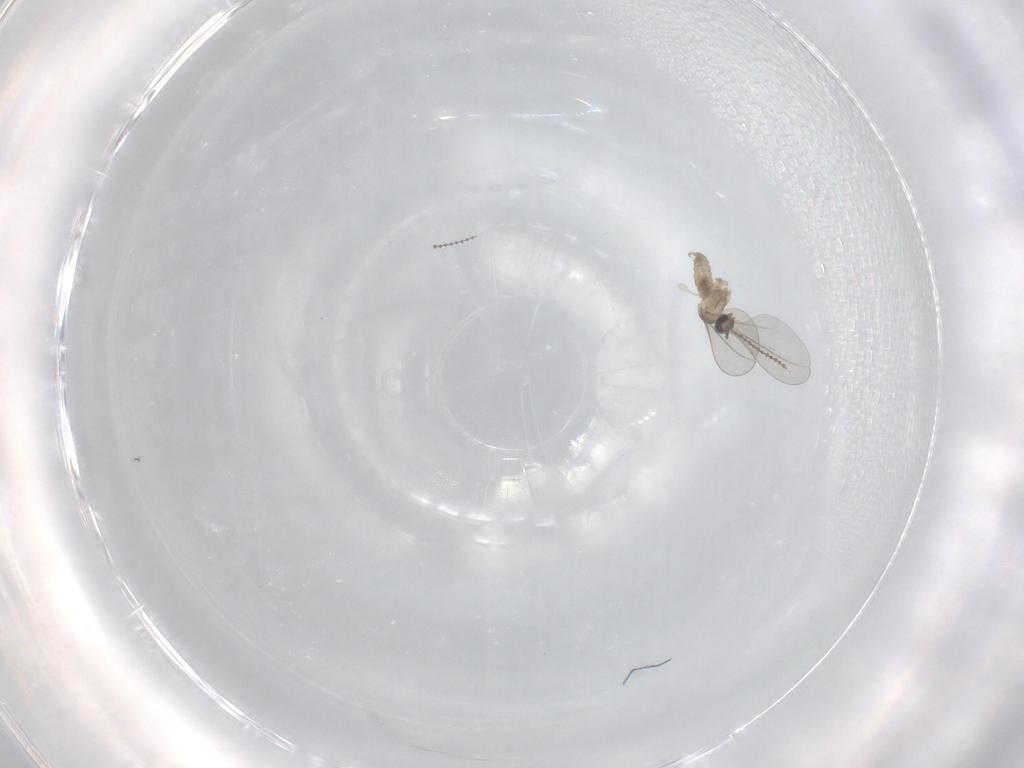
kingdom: Animalia
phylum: Arthropoda
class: Insecta
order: Diptera
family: Cecidomyiidae
